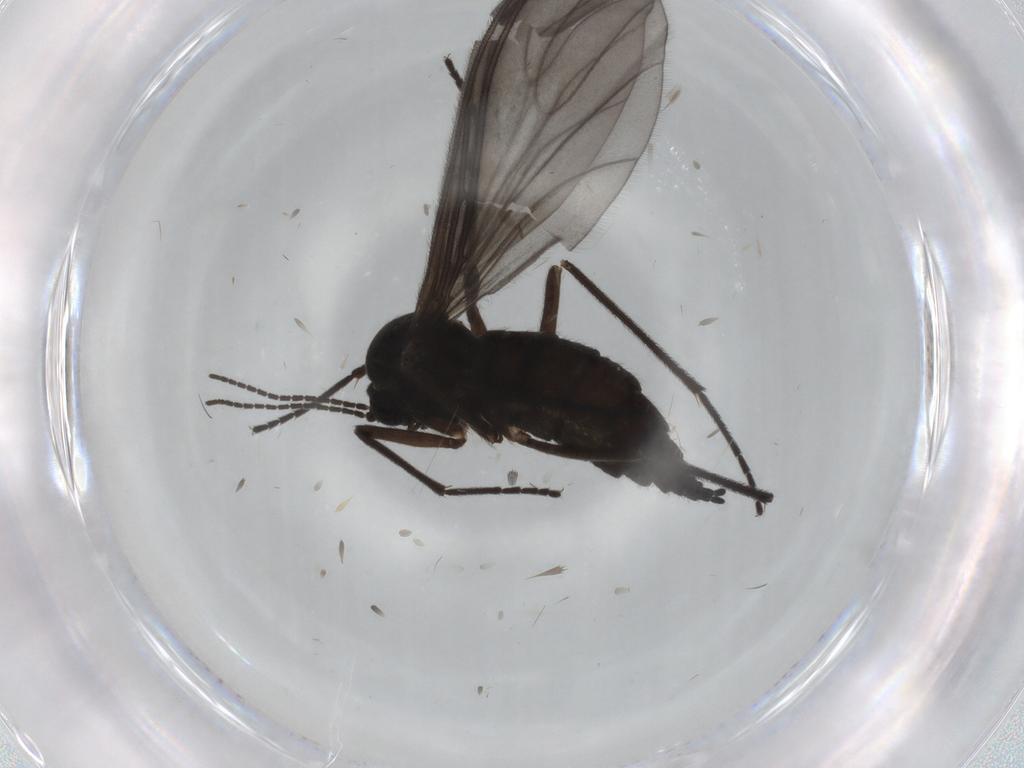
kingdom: Animalia
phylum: Arthropoda
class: Insecta
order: Diptera
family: Sciaridae
